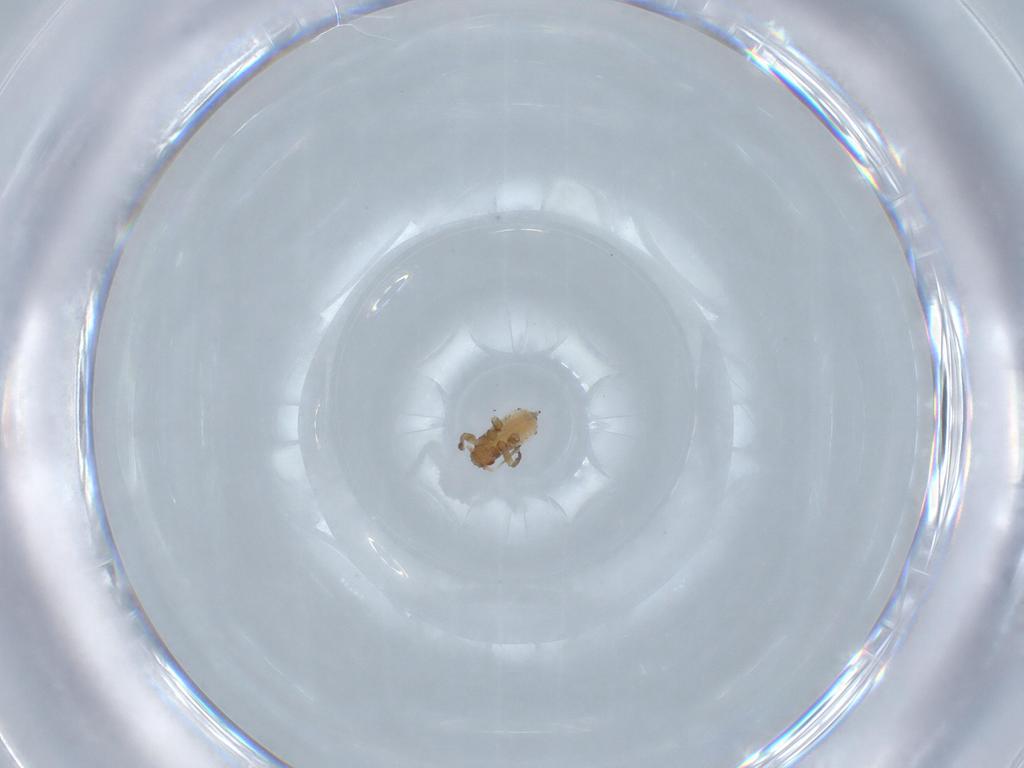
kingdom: Animalia
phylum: Arthropoda
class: Insecta
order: Hemiptera
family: Aphididae
